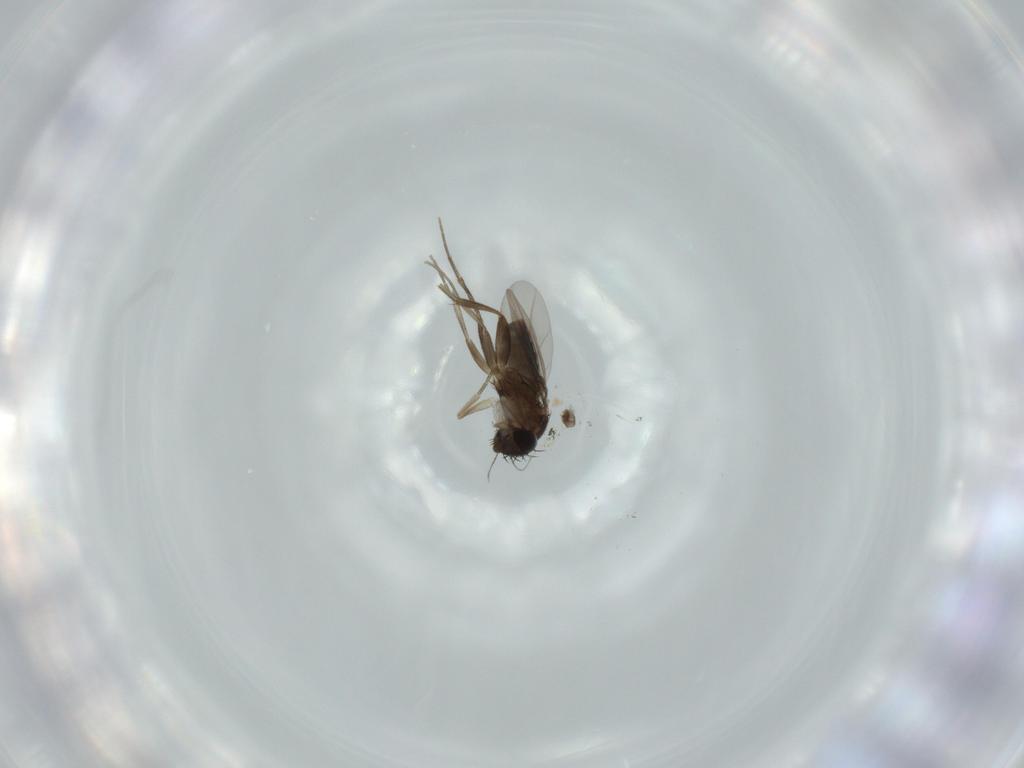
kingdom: Animalia
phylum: Arthropoda
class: Insecta
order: Diptera
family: Phoridae
